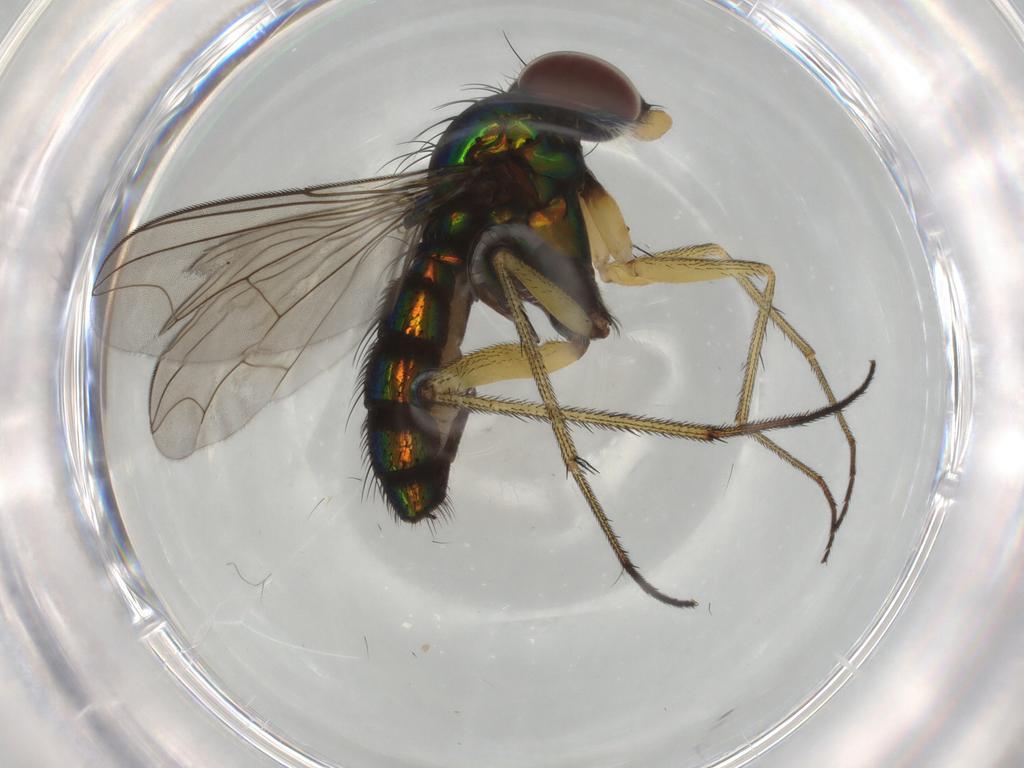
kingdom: Animalia
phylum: Arthropoda
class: Insecta
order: Diptera
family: Dolichopodidae
